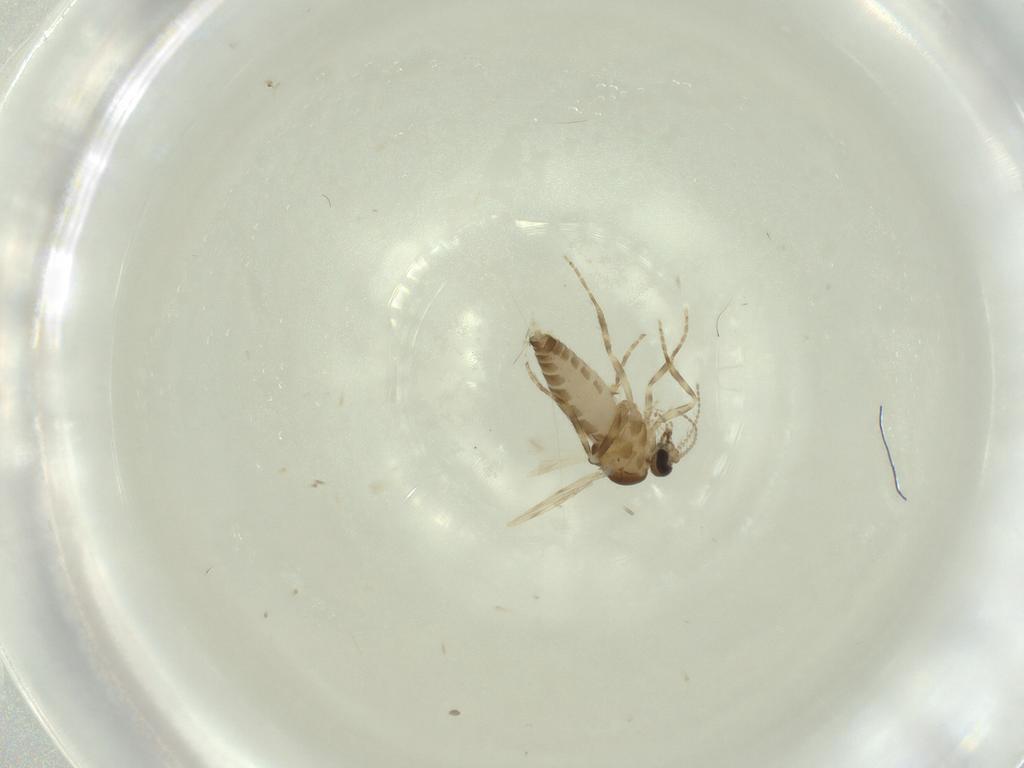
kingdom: Animalia
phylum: Arthropoda
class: Insecta
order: Diptera
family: Ceratopogonidae
